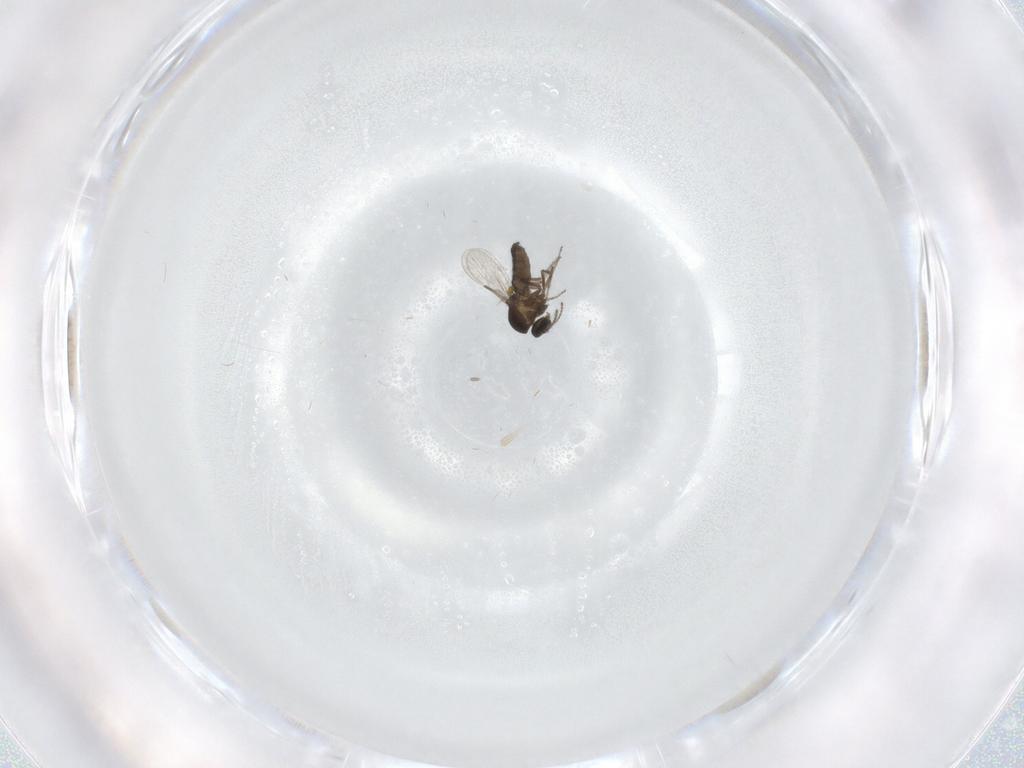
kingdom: Animalia
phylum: Arthropoda
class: Insecta
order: Diptera
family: Ceratopogonidae
